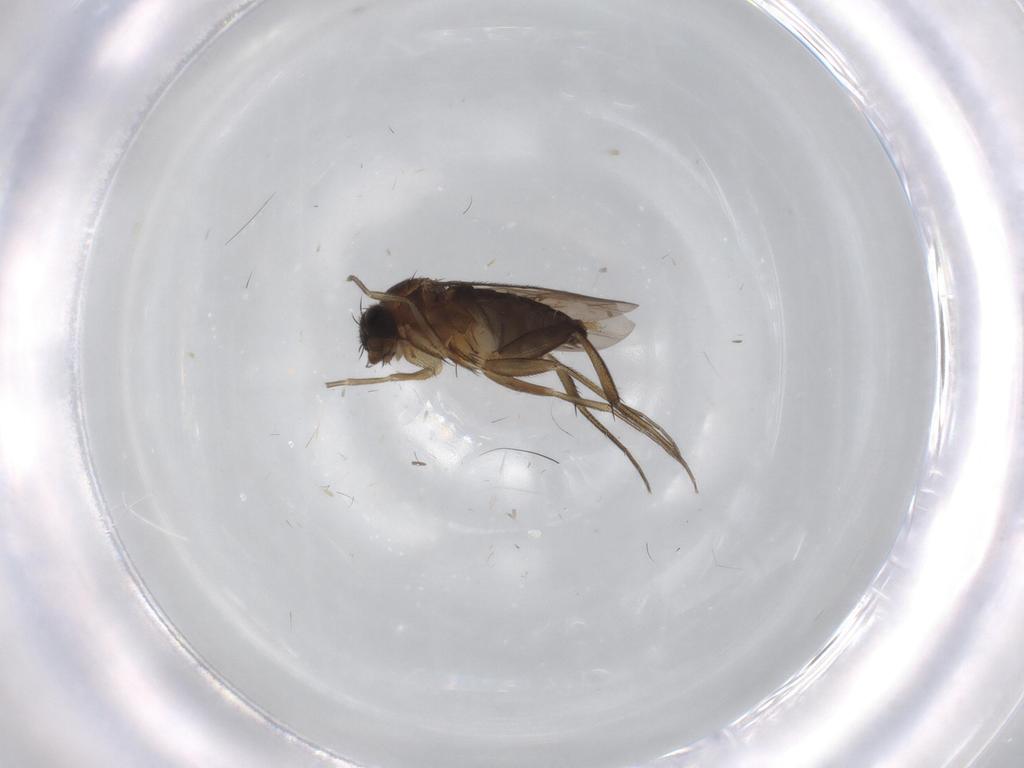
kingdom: Animalia
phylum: Arthropoda
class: Insecta
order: Diptera
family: Phoridae
